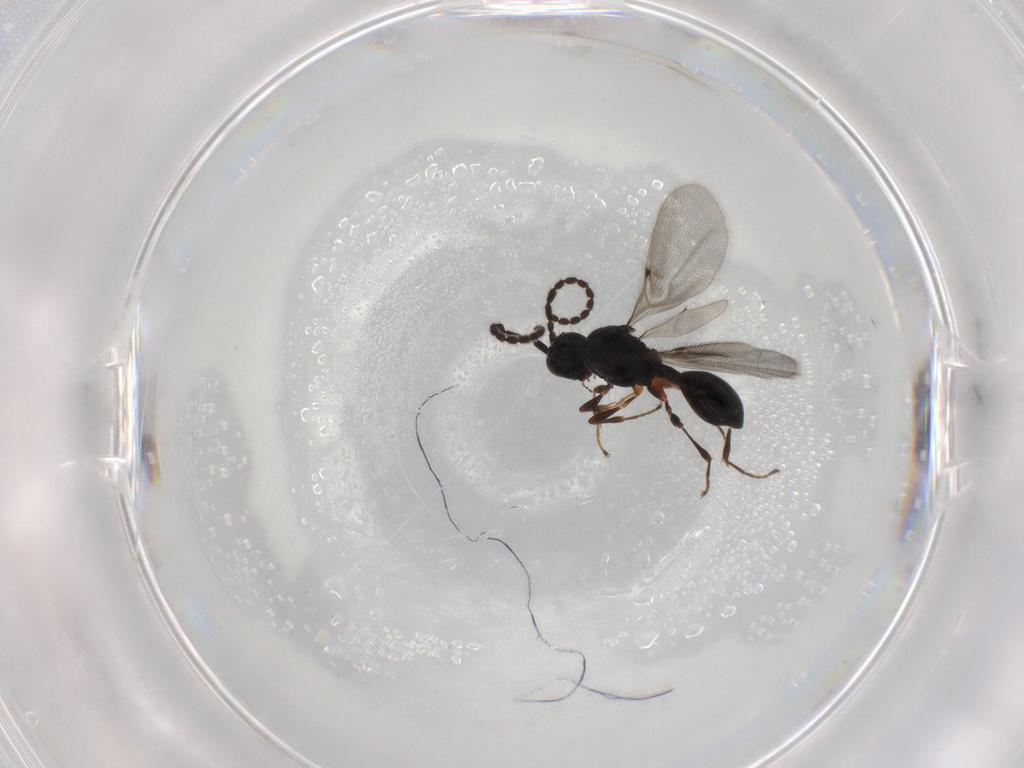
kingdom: Animalia
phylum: Arthropoda
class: Insecta
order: Hymenoptera
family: Diapriidae
